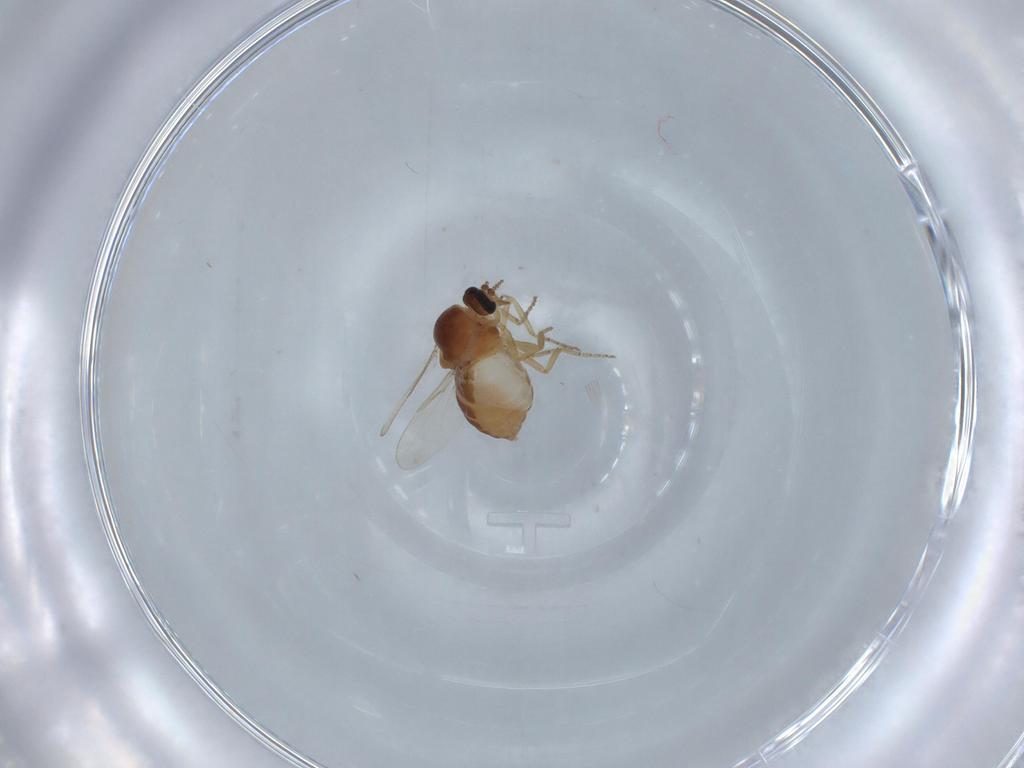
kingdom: Animalia
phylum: Arthropoda
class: Insecta
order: Diptera
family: Ceratopogonidae
